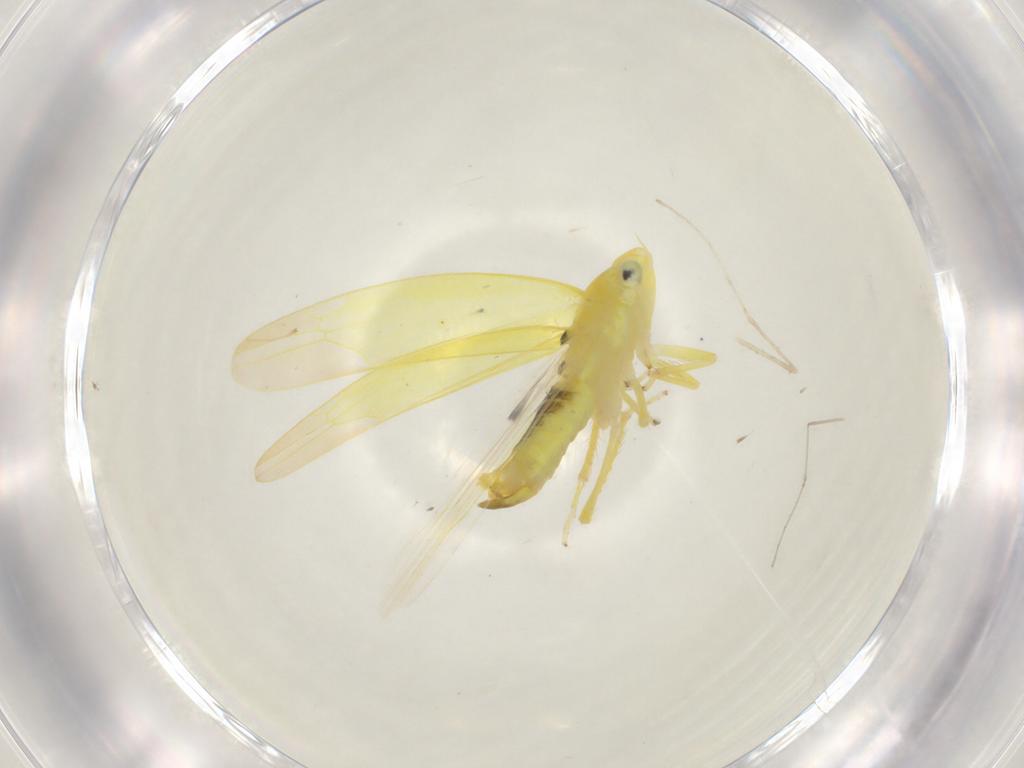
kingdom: Animalia
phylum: Arthropoda
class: Insecta
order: Hemiptera
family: Cicadellidae
